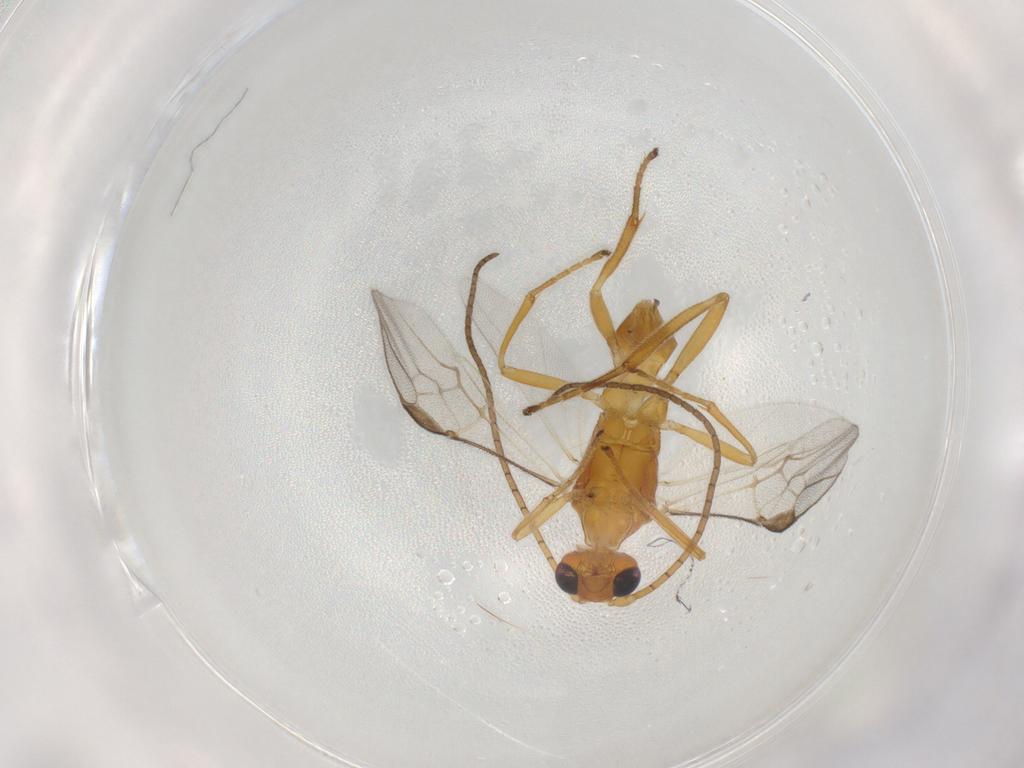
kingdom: Animalia
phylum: Arthropoda
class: Insecta
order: Hymenoptera
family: Braconidae
